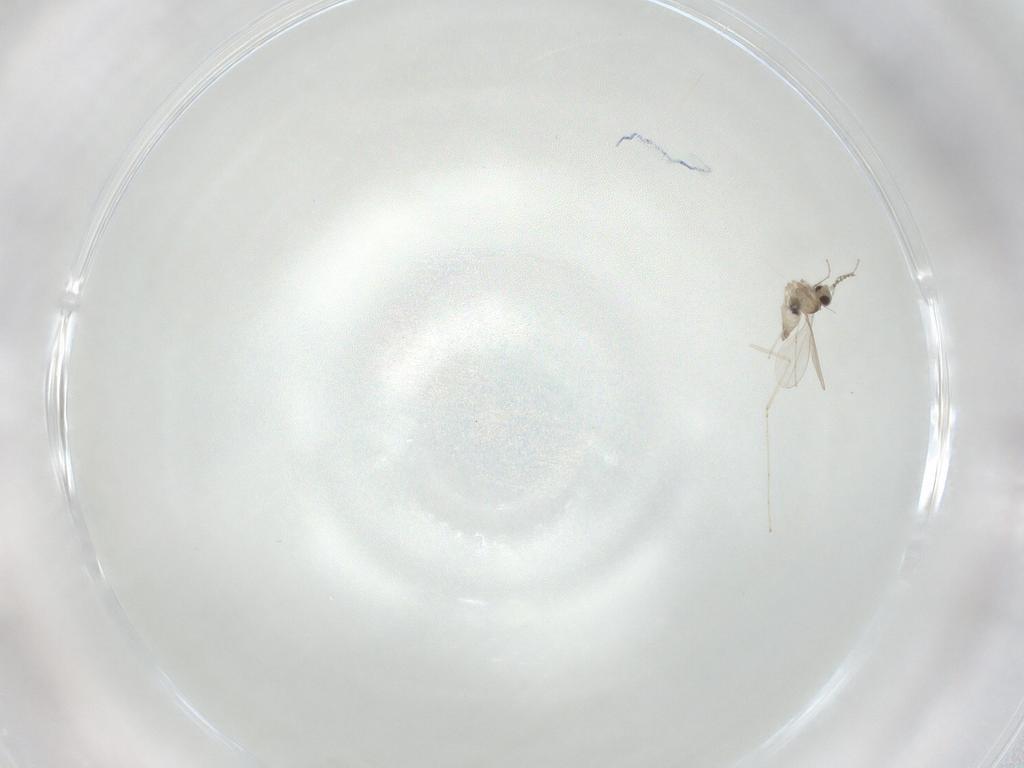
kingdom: Animalia
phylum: Arthropoda
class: Insecta
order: Diptera
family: Cecidomyiidae
